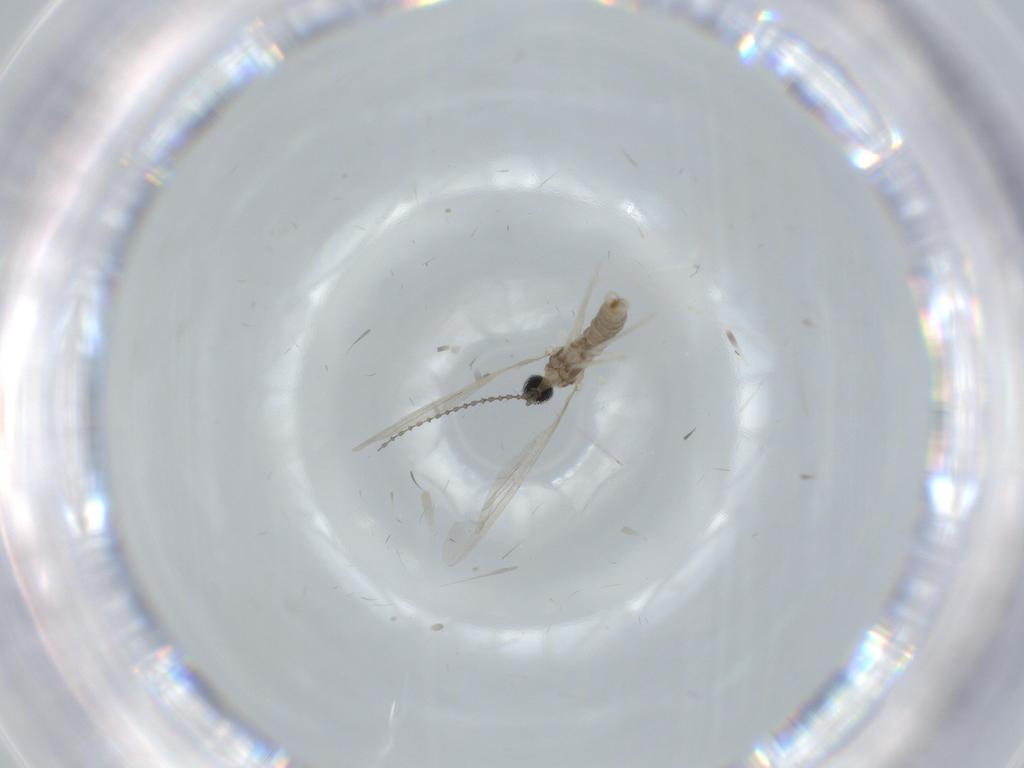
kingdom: Animalia
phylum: Arthropoda
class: Insecta
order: Diptera
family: Cecidomyiidae
